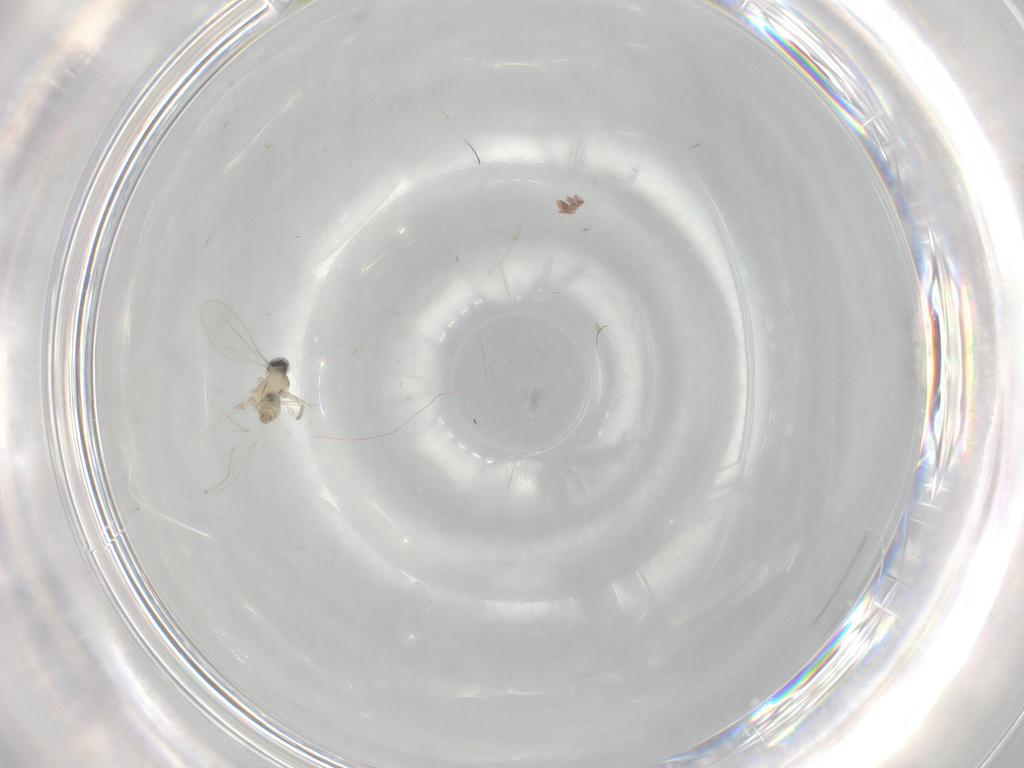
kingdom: Animalia
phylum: Arthropoda
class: Insecta
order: Diptera
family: Cecidomyiidae
